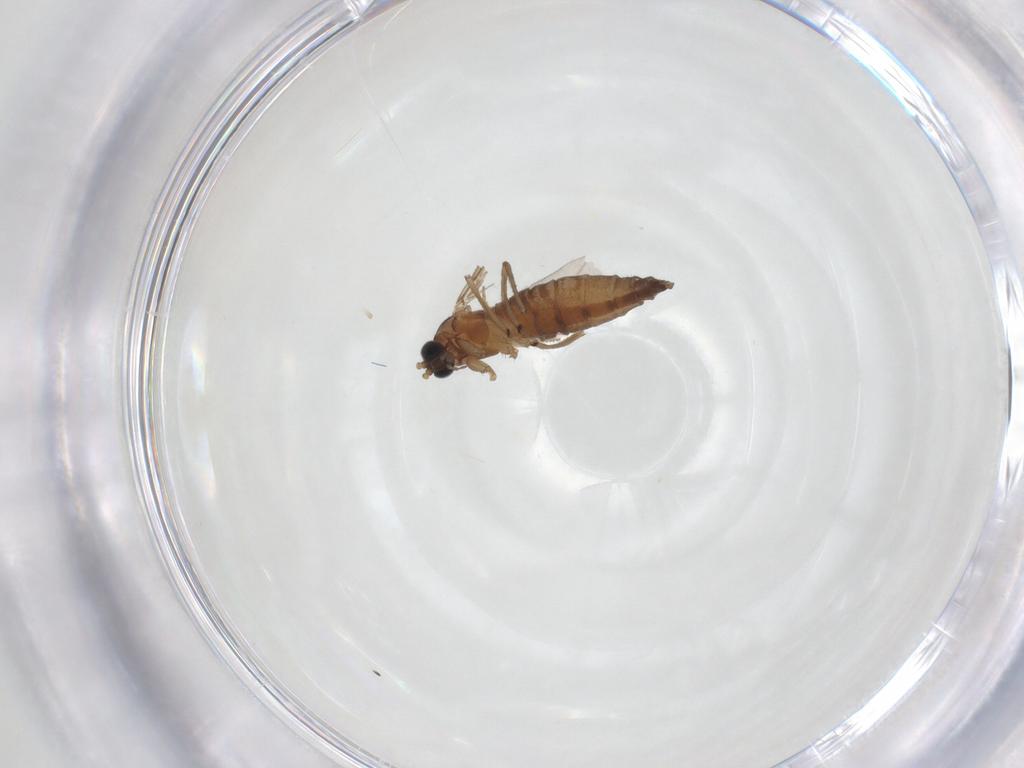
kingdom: Animalia
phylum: Arthropoda
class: Insecta
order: Diptera
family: Sciaridae
